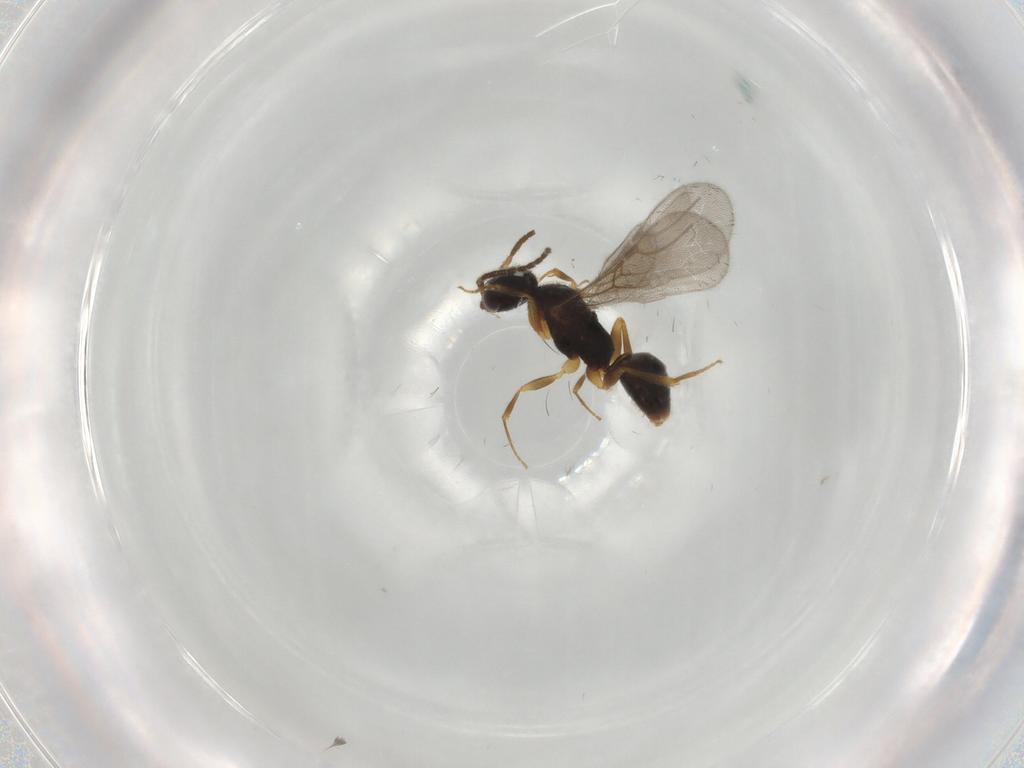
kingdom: Animalia
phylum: Arthropoda
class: Insecta
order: Hymenoptera
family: Bethylidae
